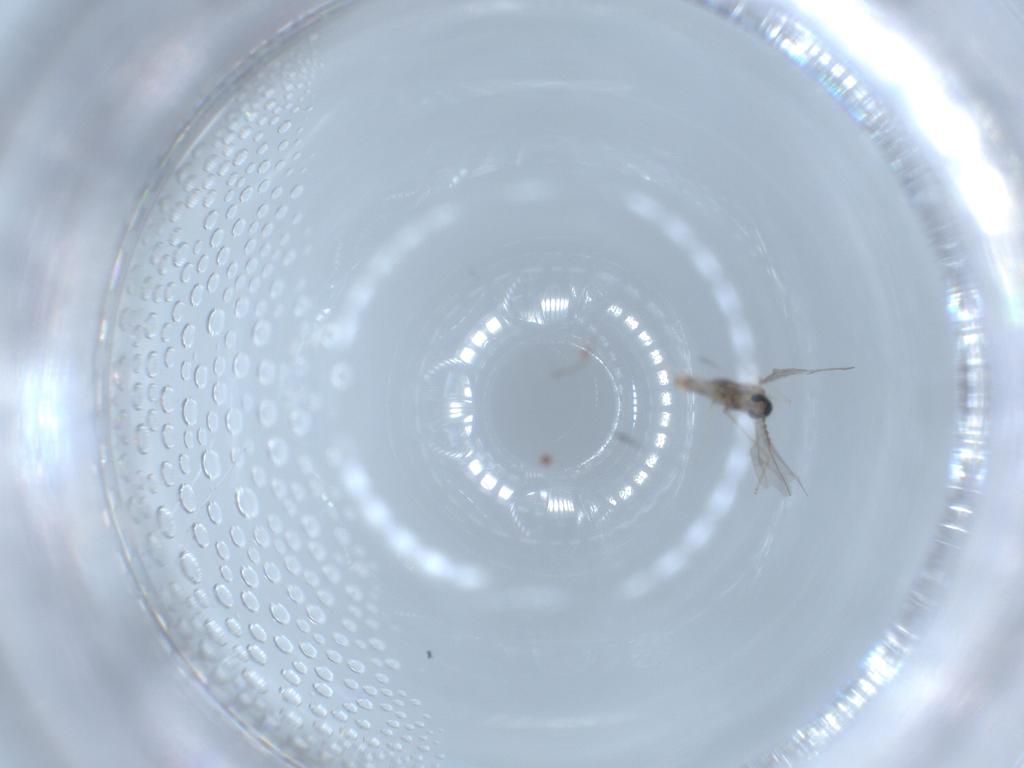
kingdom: Animalia
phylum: Arthropoda
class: Insecta
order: Diptera
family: Cecidomyiidae
